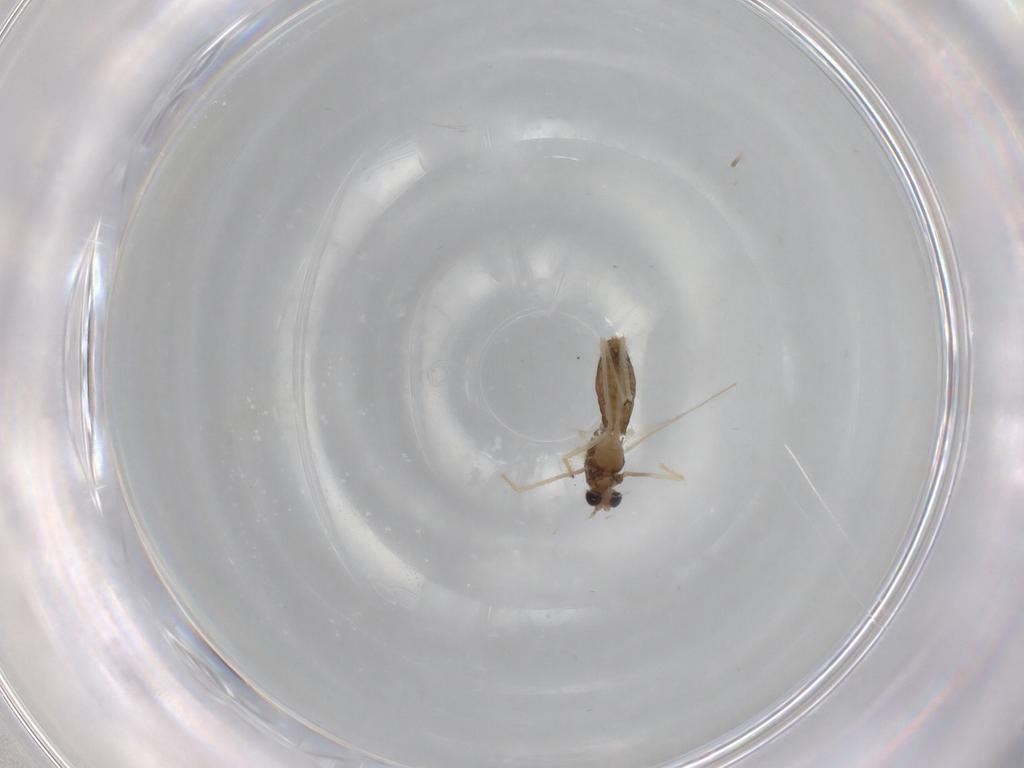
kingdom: Animalia
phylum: Arthropoda
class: Insecta
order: Diptera
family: Chironomidae
